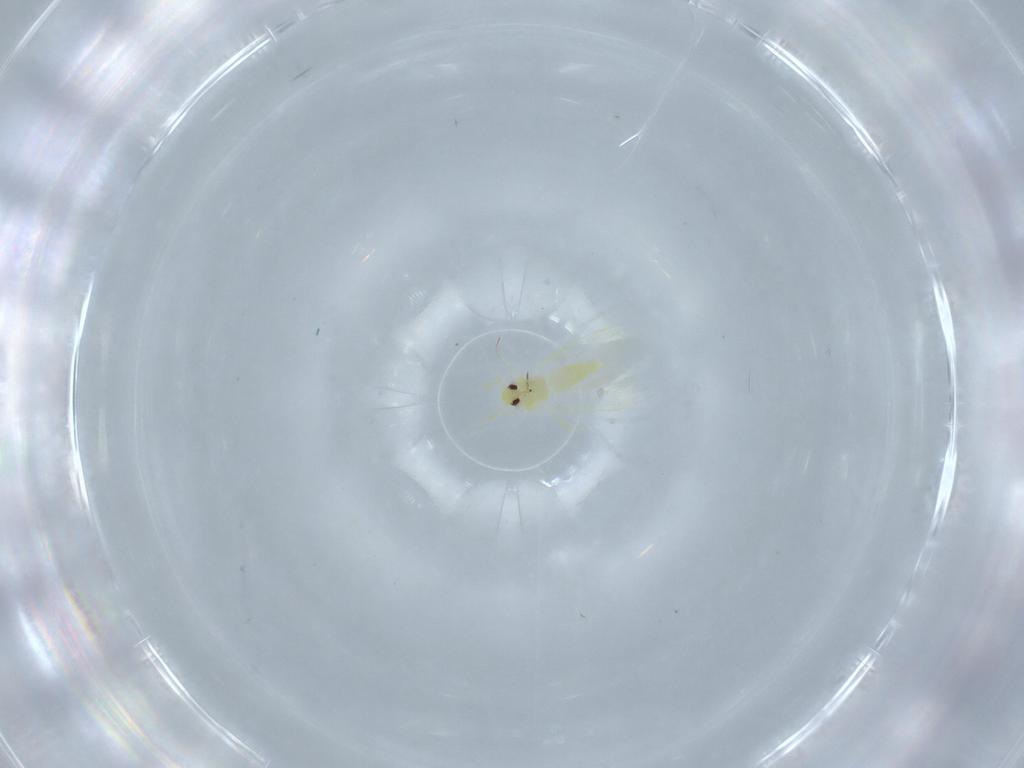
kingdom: Animalia
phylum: Arthropoda
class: Insecta
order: Hemiptera
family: Aleyrodidae
